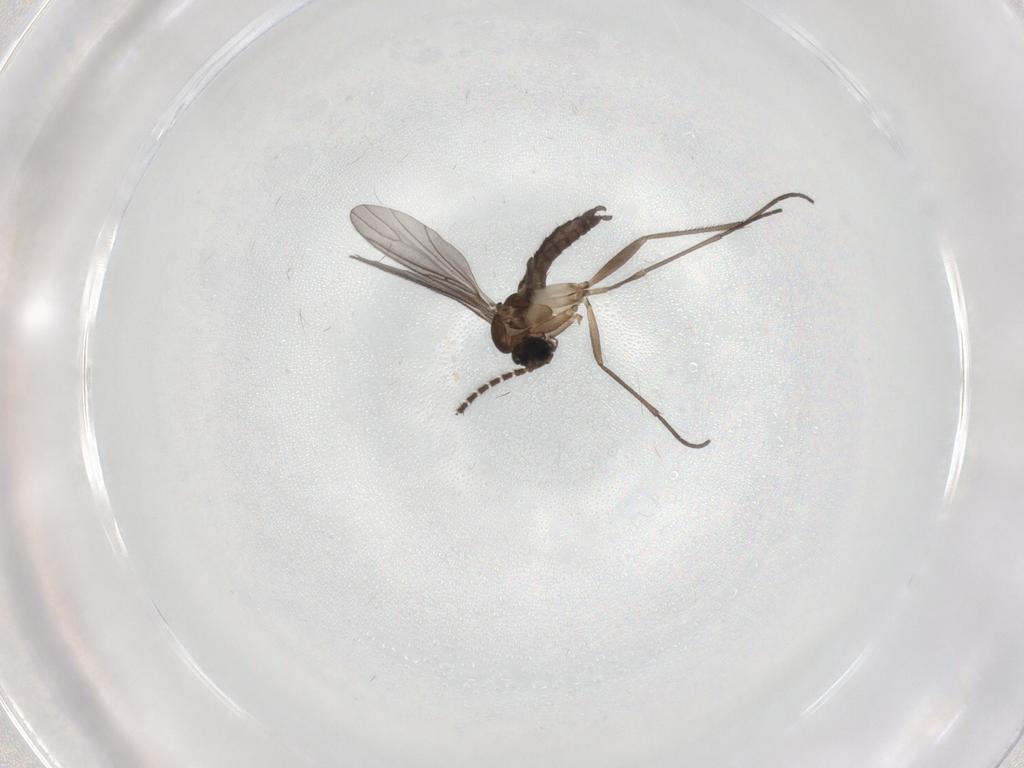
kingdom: Animalia
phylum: Arthropoda
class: Insecta
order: Diptera
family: Sciaridae
